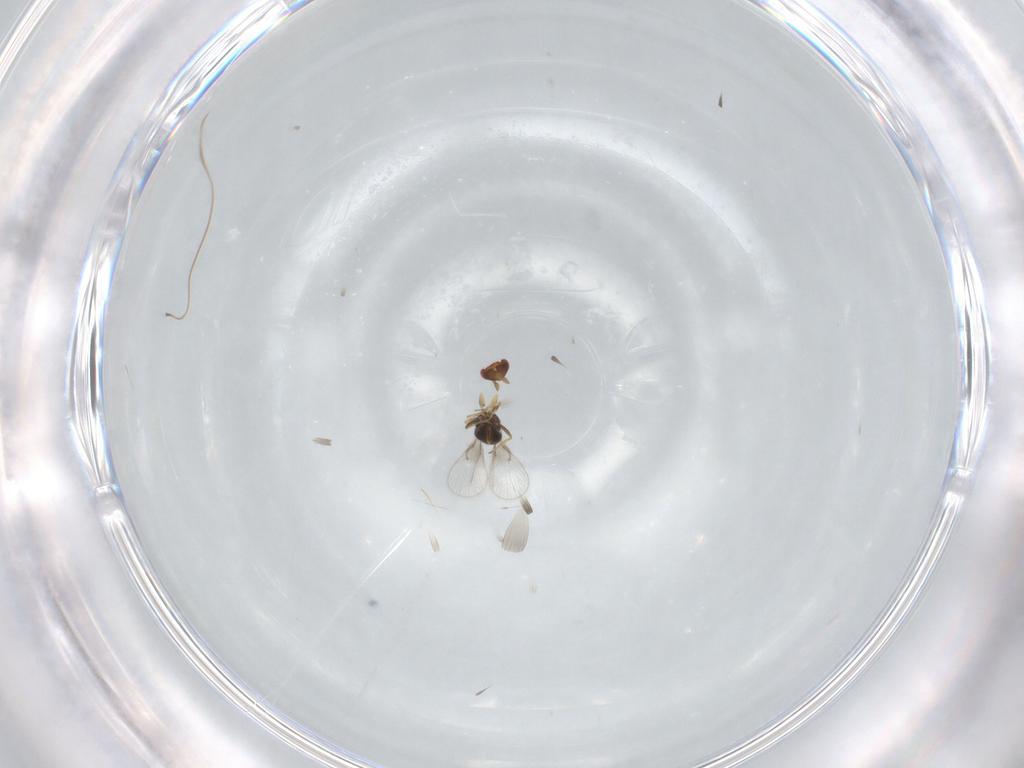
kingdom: Animalia
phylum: Arthropoda
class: Insecta
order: Hymenoptera
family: Trichogrammatidae
